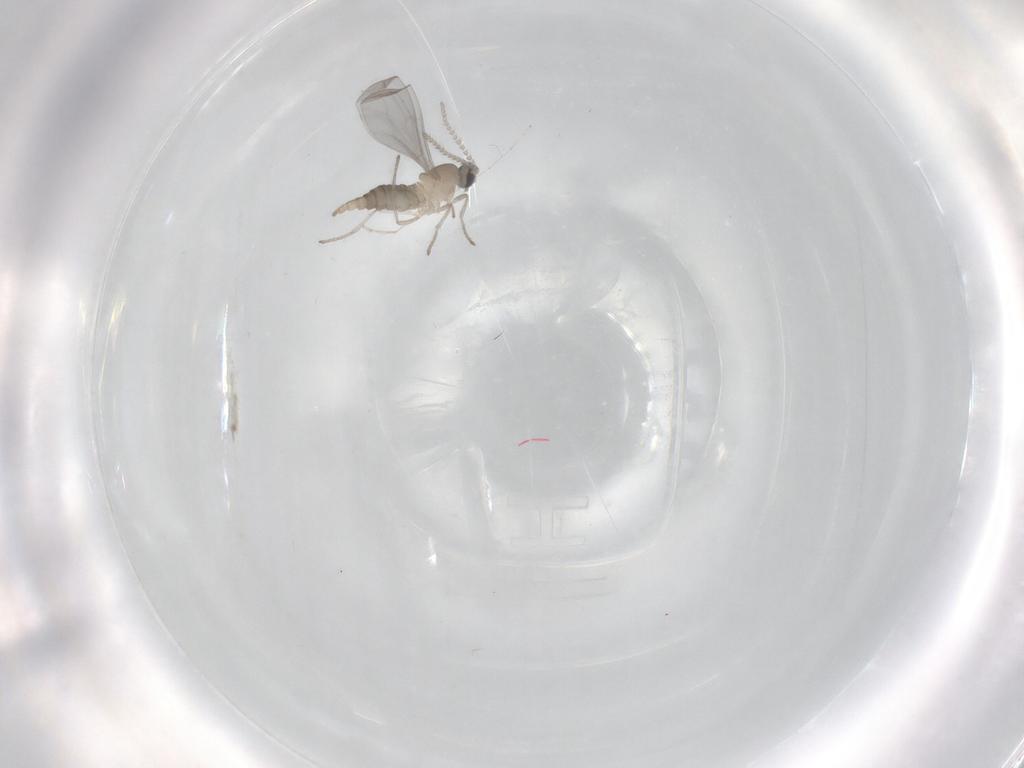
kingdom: Animalia
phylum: Arthropoda
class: Insecta
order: Diptera
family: Cecidomyiidae
